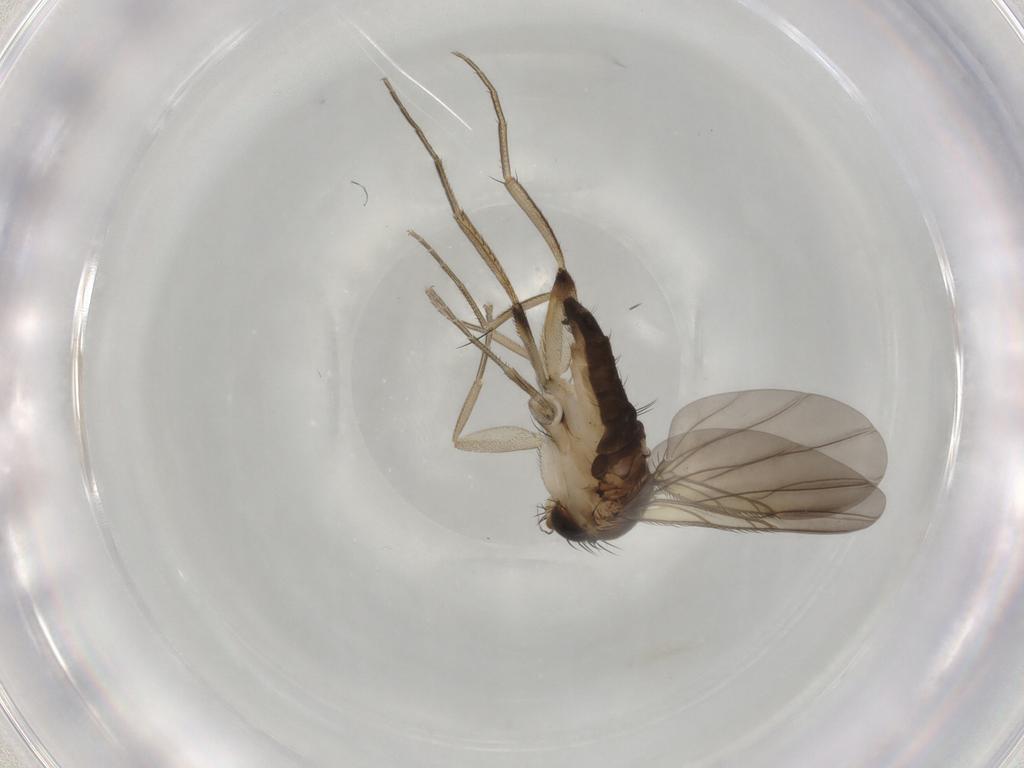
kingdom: Animalia
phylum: Arthropoda
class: Insecta
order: Diptera
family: Phoridae
